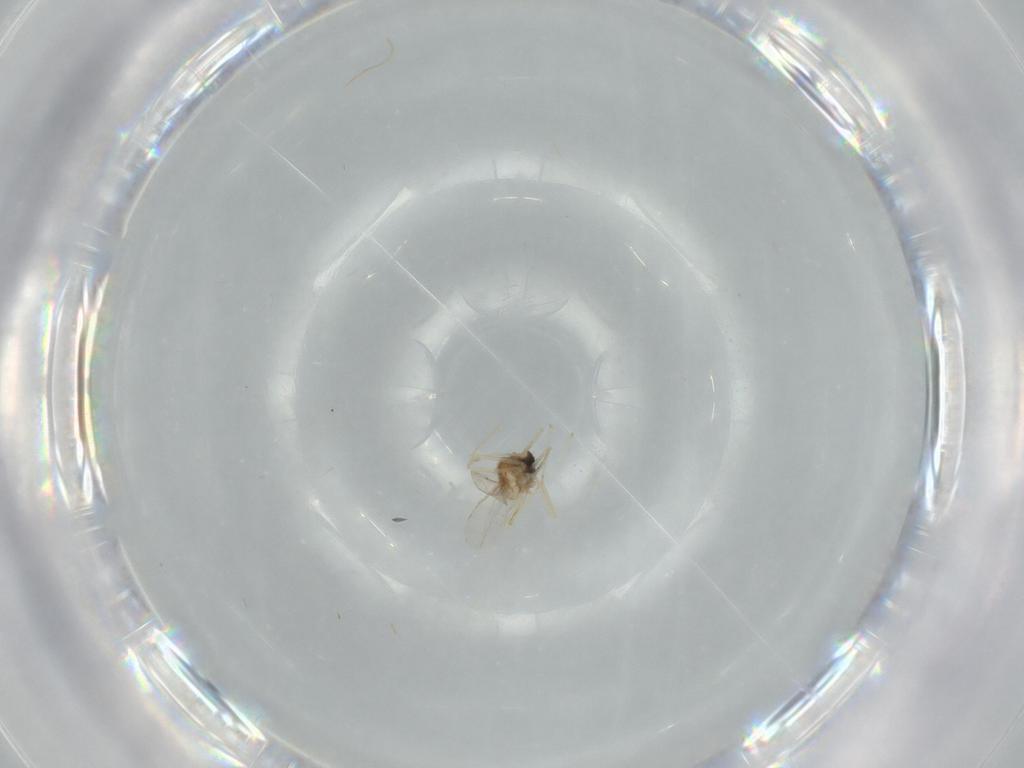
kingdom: Animalia
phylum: Arthropoda
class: Insecta
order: Diptera
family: Cecidomyiidae
